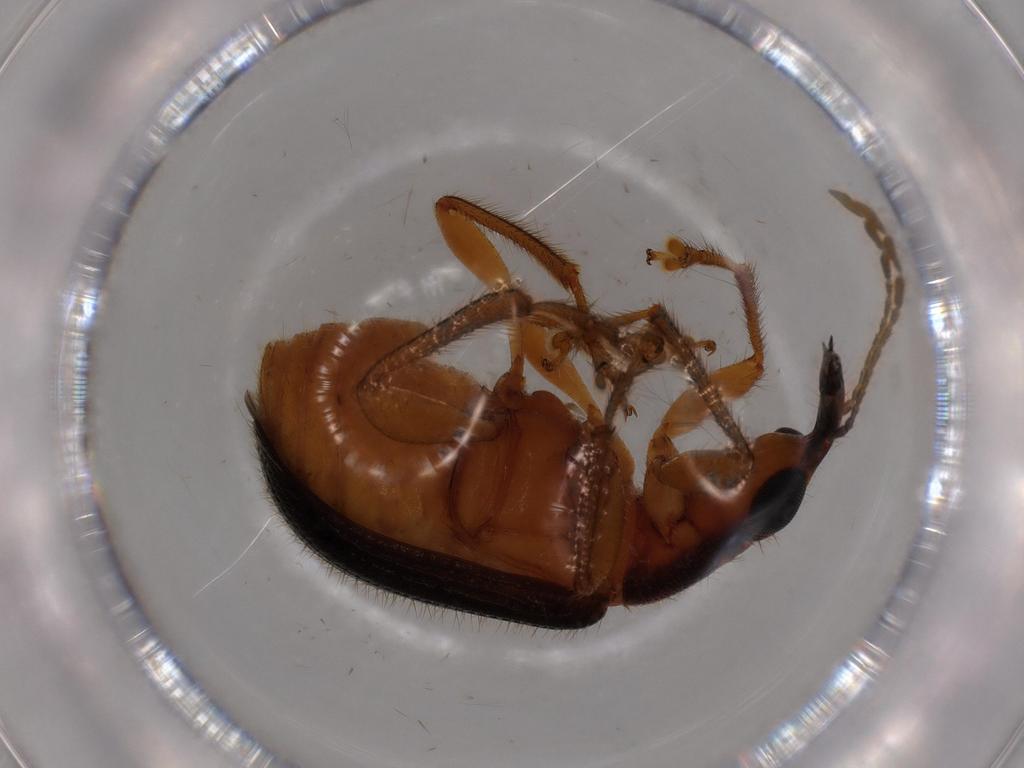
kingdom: Animalia
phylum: Arthropoda
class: Insecta
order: Coleoptera
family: Attelabidae
